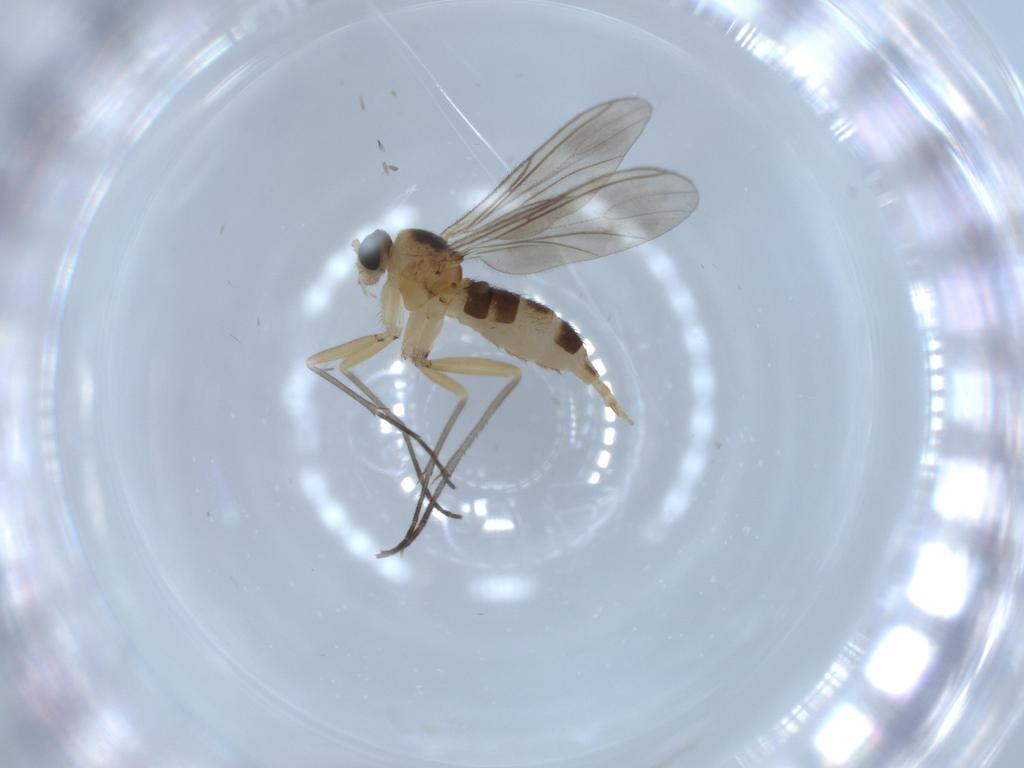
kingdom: Animalia
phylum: Arthropoda
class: Insecta
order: Diptera
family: Sciaridae
